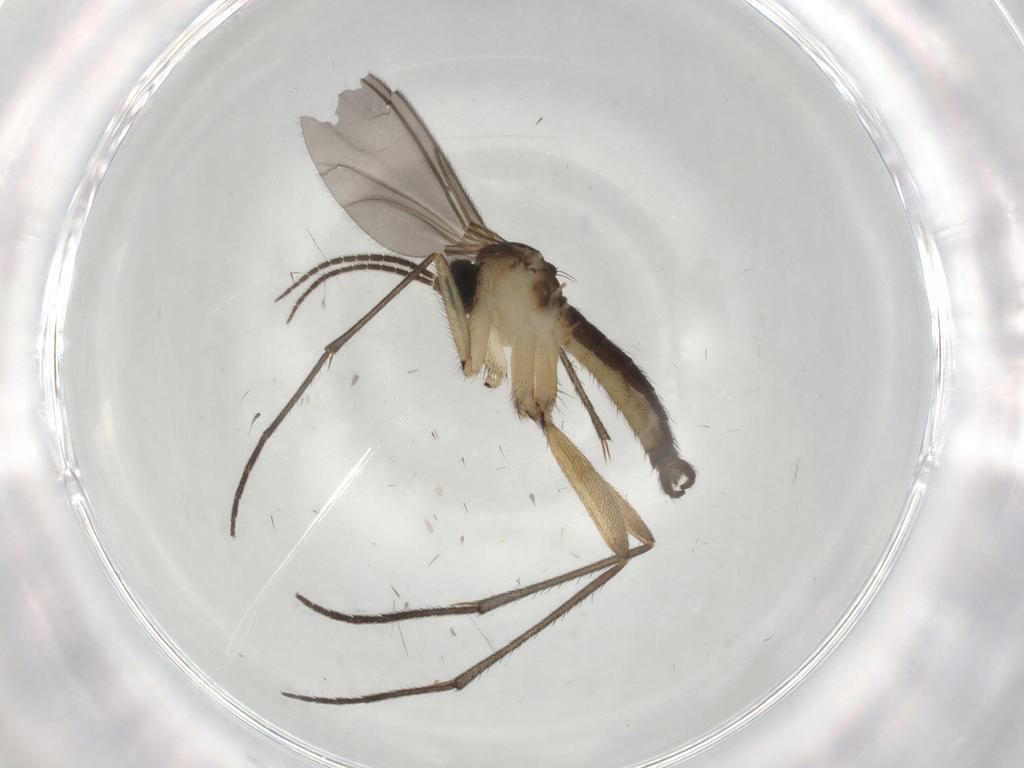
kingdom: Animalia
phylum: Arthropoda
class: Insecta
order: Diptera
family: Sciaridae
